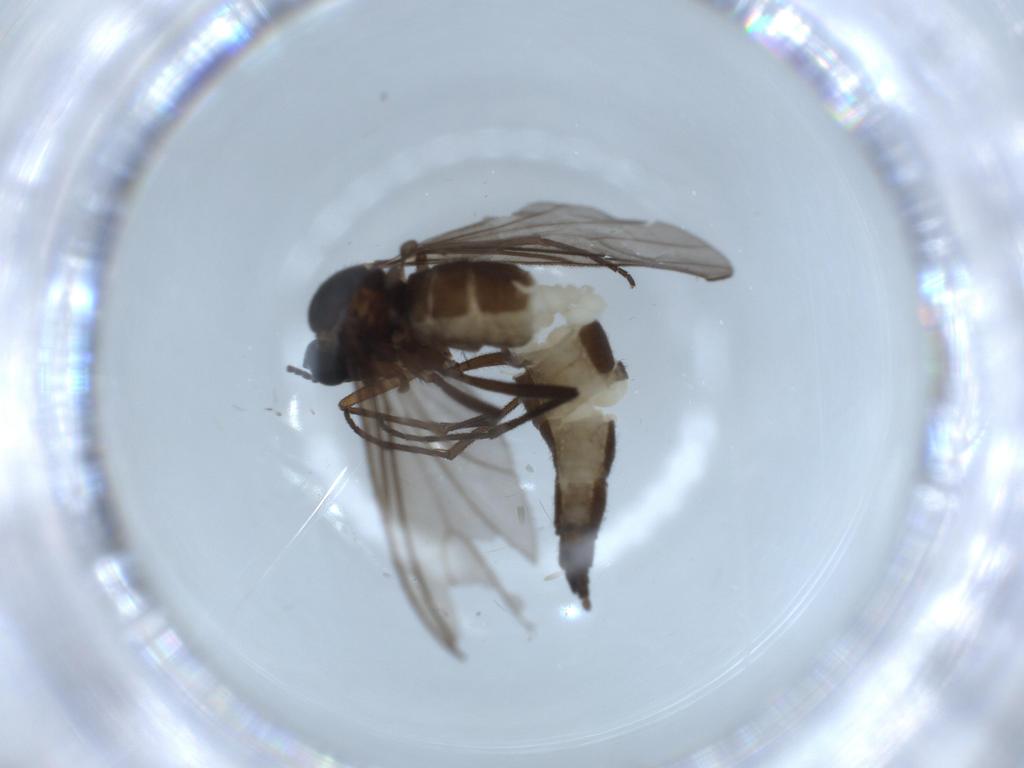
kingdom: Animalia
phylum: Arthropoda
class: Insecta
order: Diptera
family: Sciaridae
